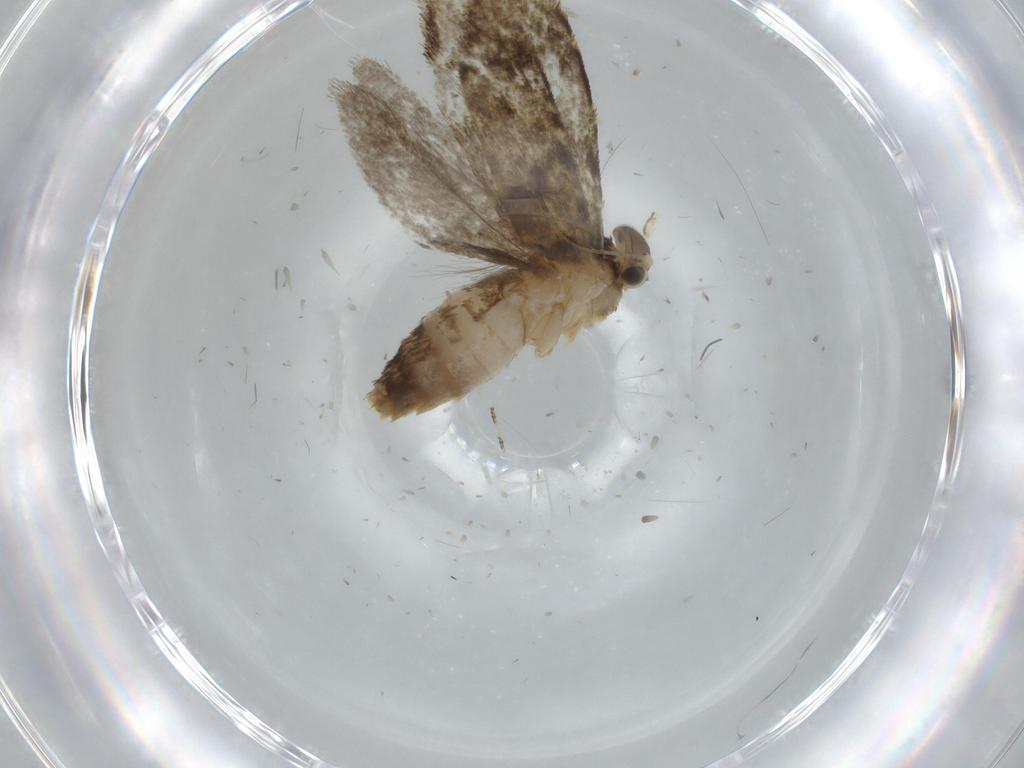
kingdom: Animalia
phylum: Arthropoda
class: Insecta
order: Lepidoptera
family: Tineidae
